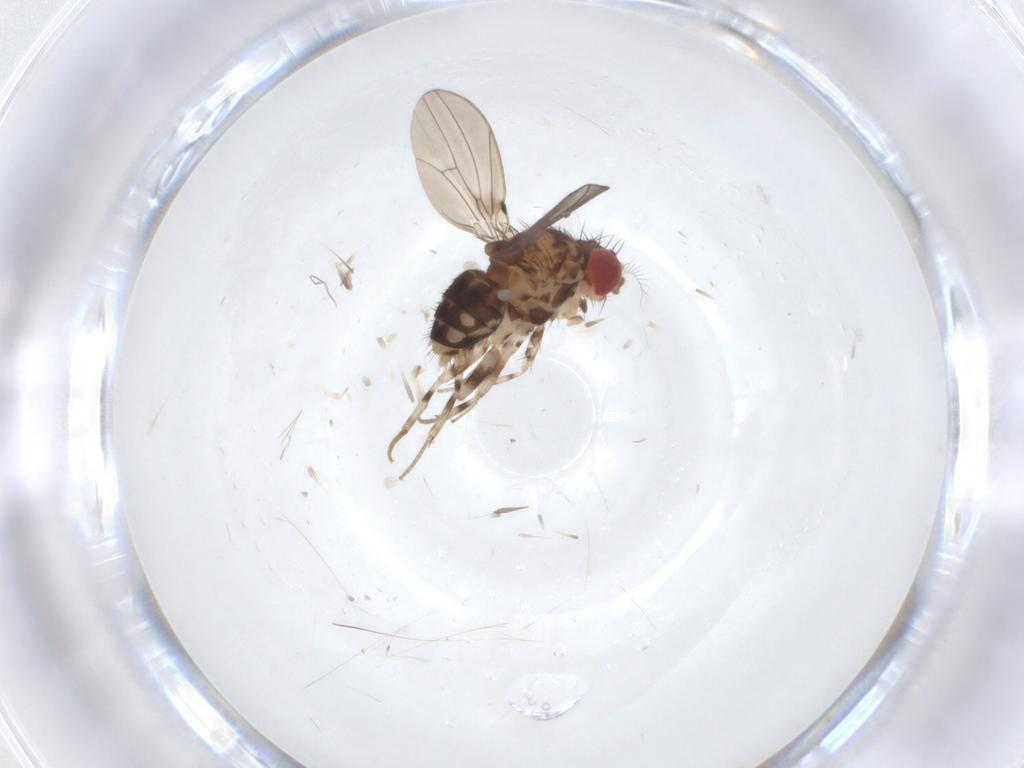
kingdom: Animalia
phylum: Arthropoda
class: Insecta
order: Diptera
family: Drosophilidae
